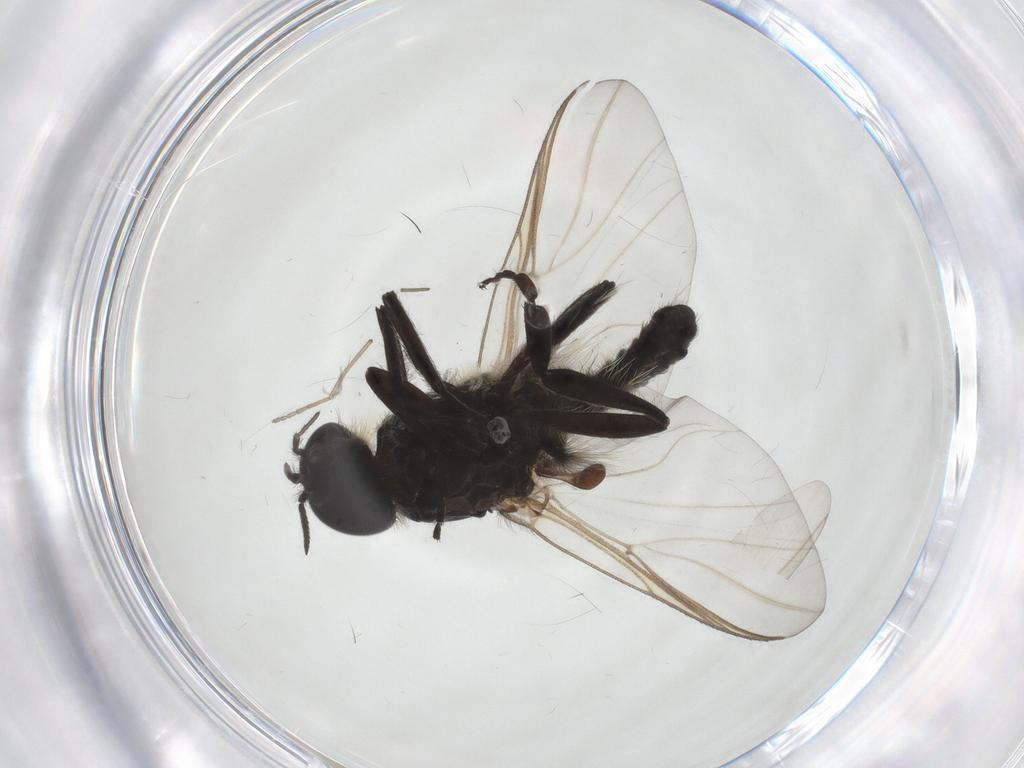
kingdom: Animalia
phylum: Arthropoda
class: Insecta
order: Diptera
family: Simuliidae
